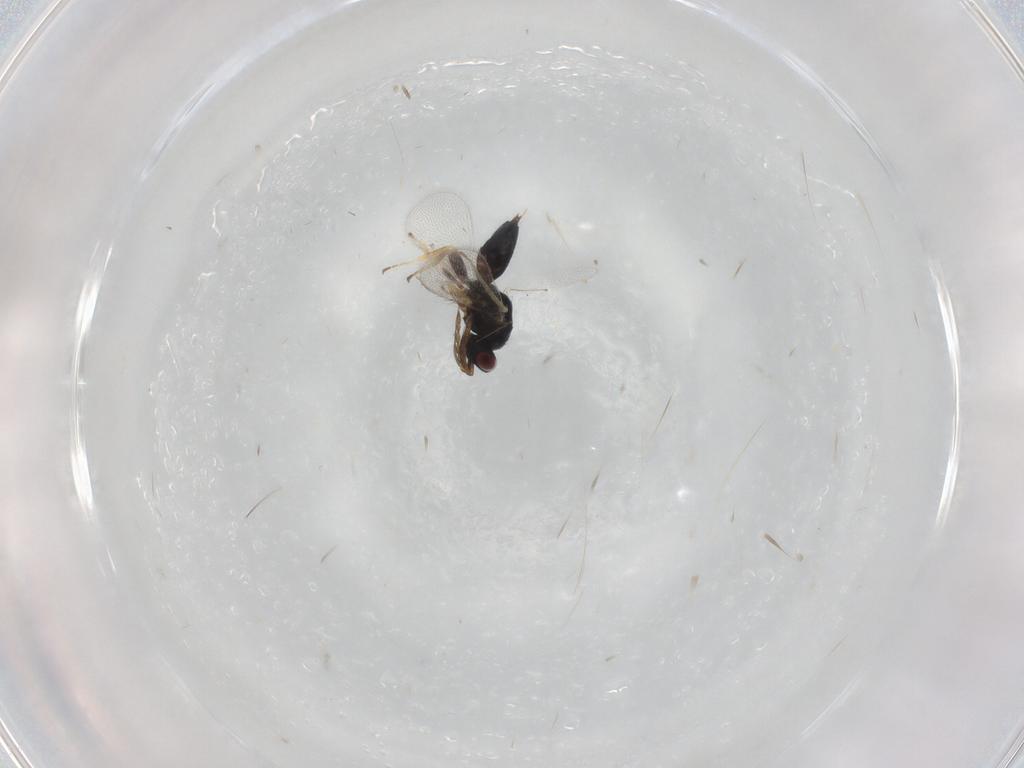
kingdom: Animalia
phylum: Arthropoda
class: Insecta
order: Hymenoptera
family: Eulophidae
